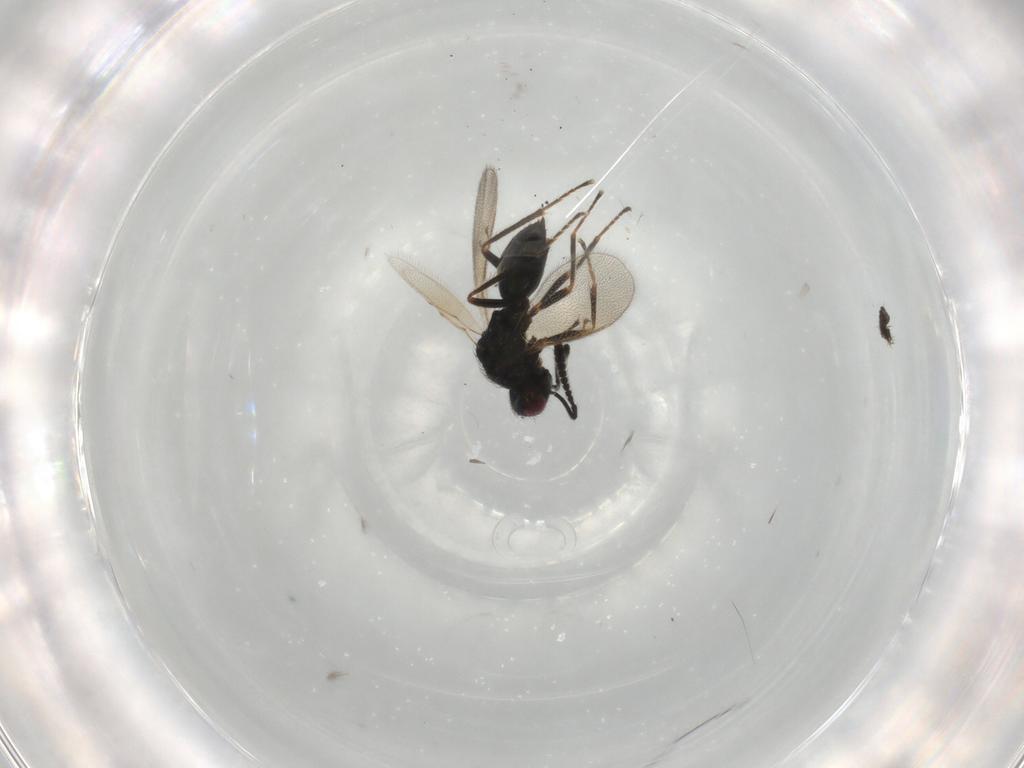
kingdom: Animalia
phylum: Arthropoda
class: Insecta
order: Hymenoptera
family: Pteromalidae
